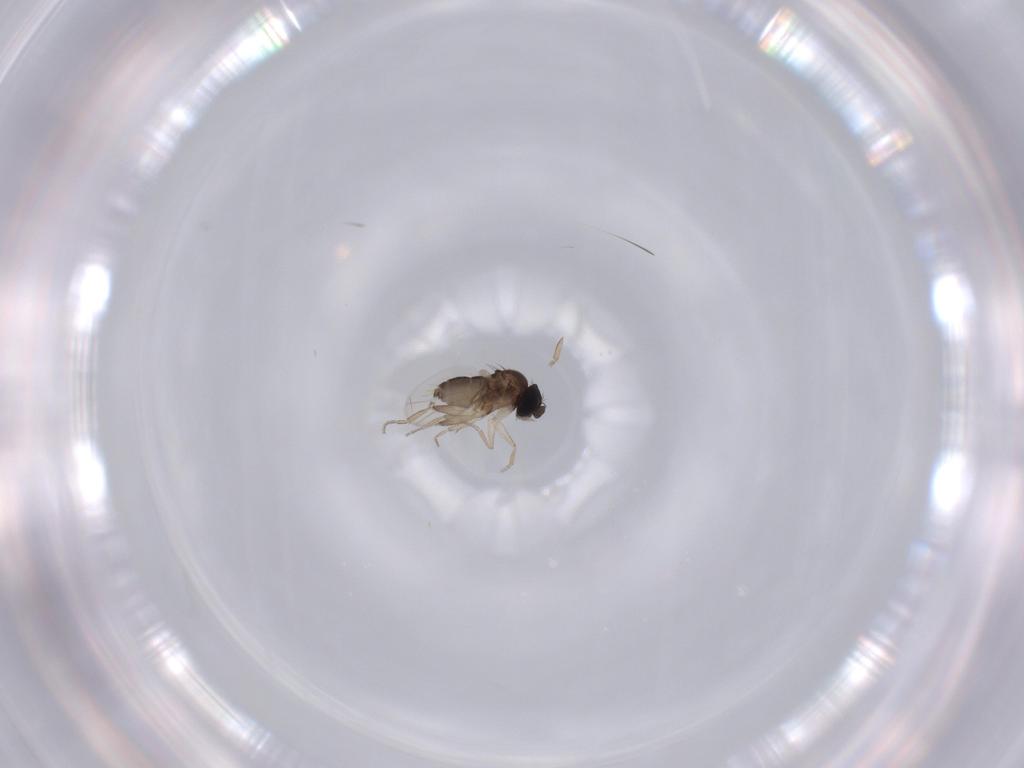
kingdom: Animalia
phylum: Arthropoda
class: Insecta
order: Diptera
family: Phoridae
